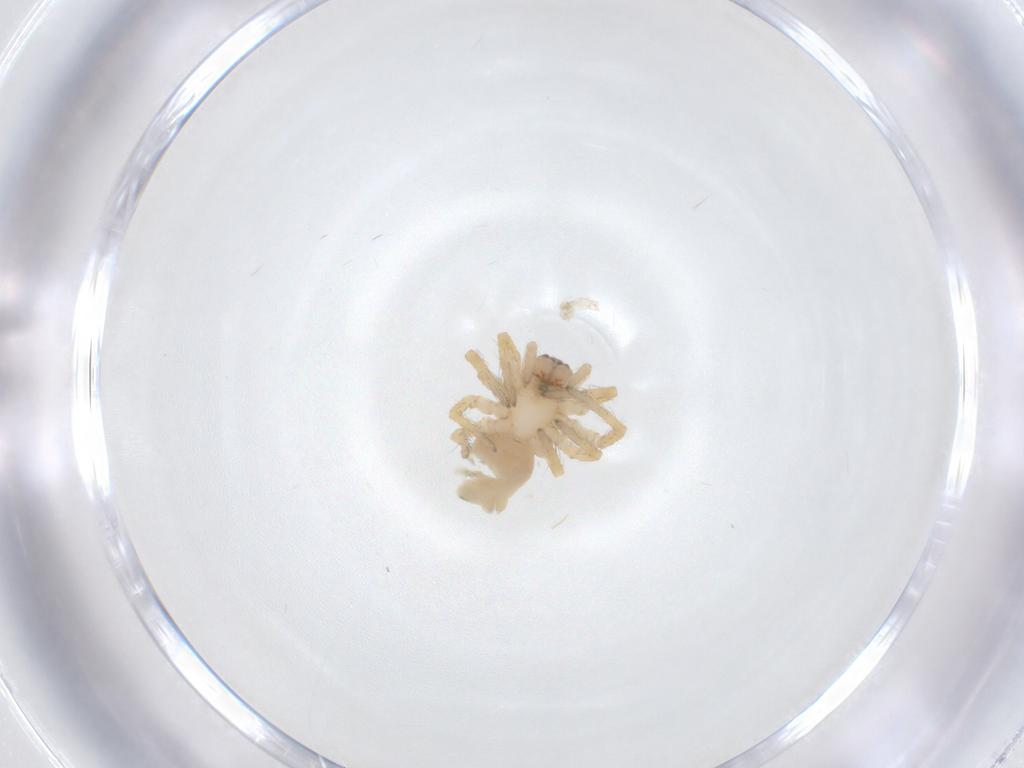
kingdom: Animalia
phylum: Arthropoda
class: Arachnida
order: Araneae
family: Desidae
